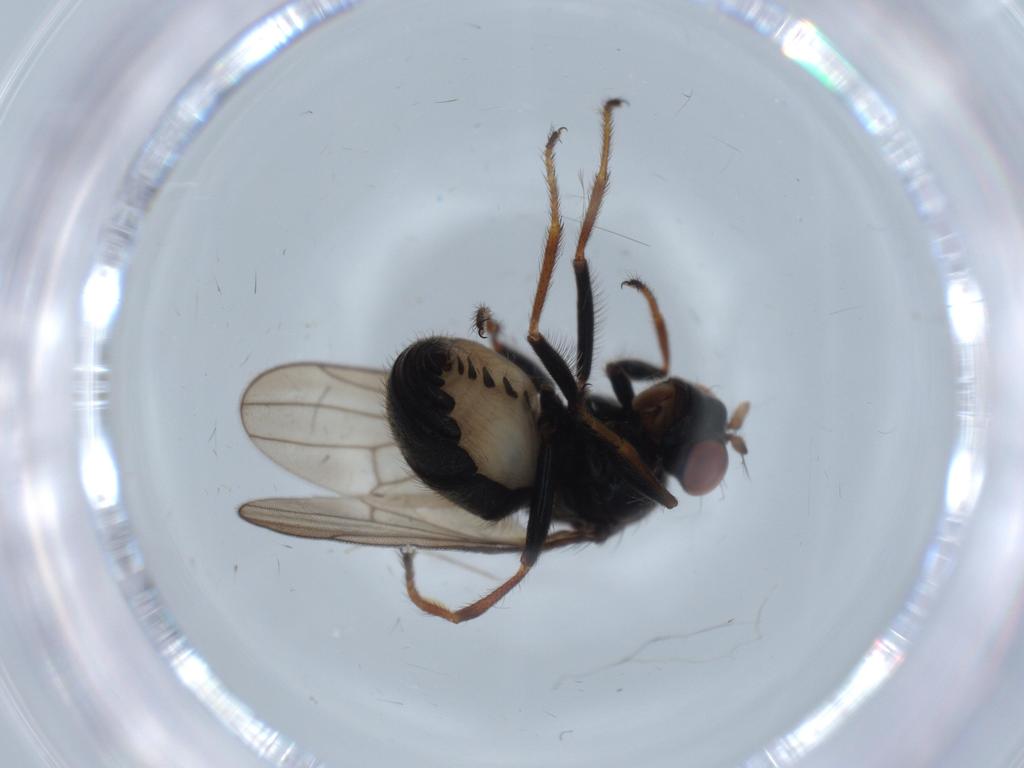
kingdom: Animalia
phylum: Arthropoda
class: Insecta
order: Diptera
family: Ephydridae
